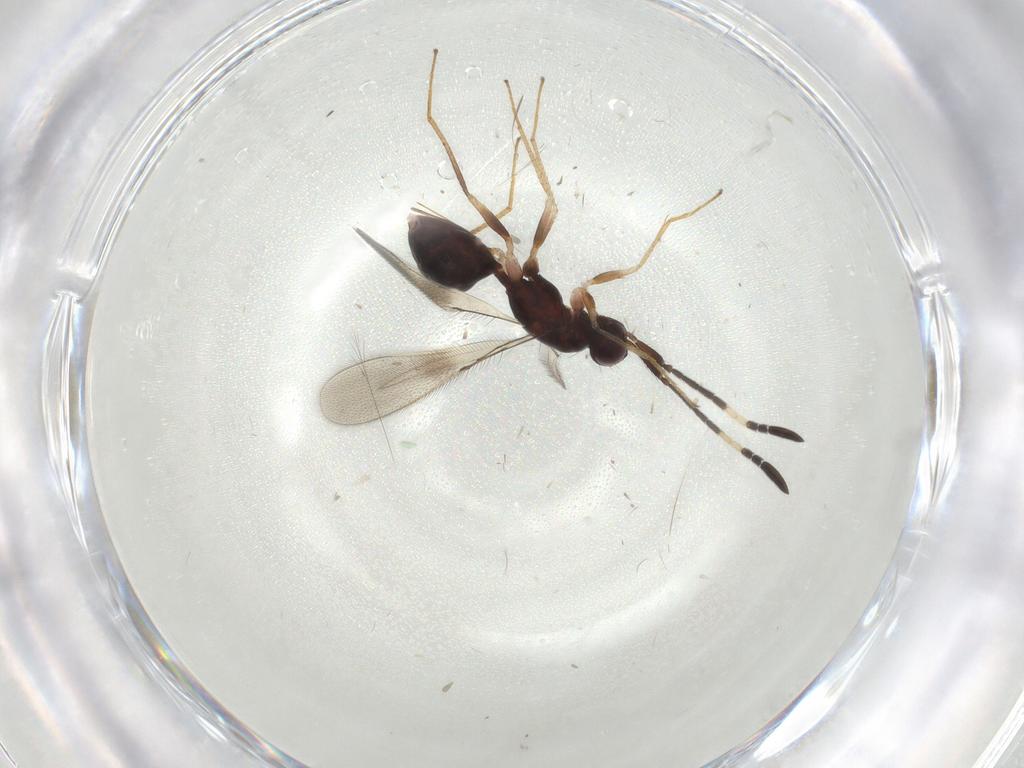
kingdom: Animalia
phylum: Arthropoda
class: Insecta
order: Hymenoptera
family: Mymaridae
